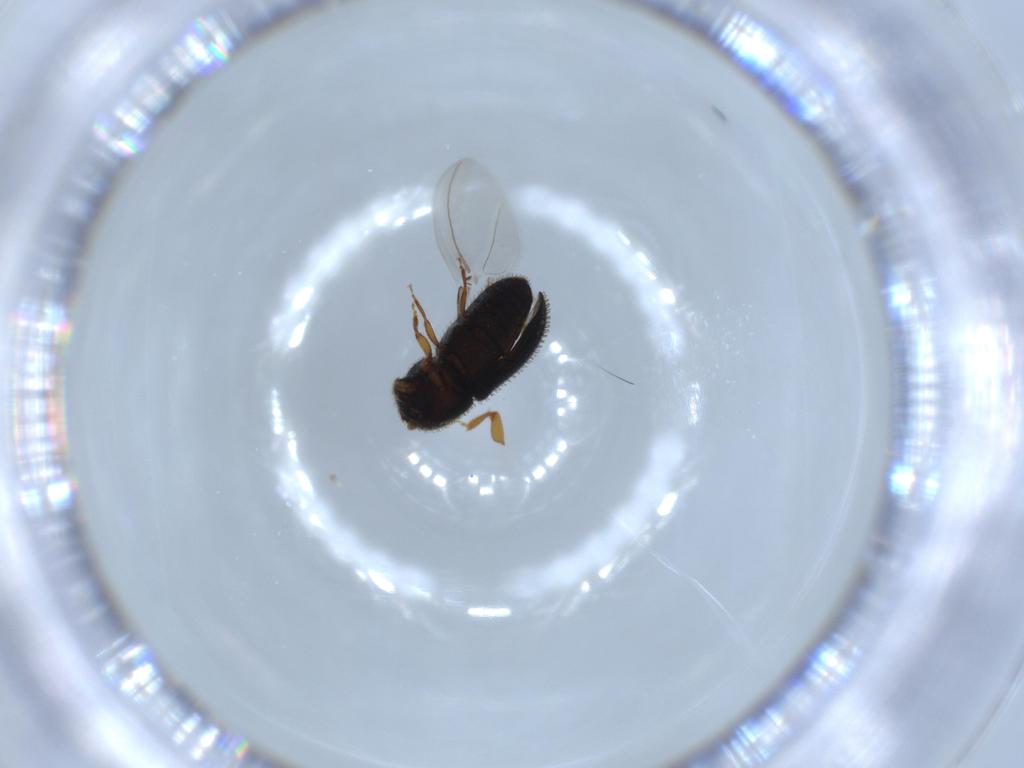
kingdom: Animalia
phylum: Arthropoda
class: Insecta
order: Coleoptera
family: Curculionidae
